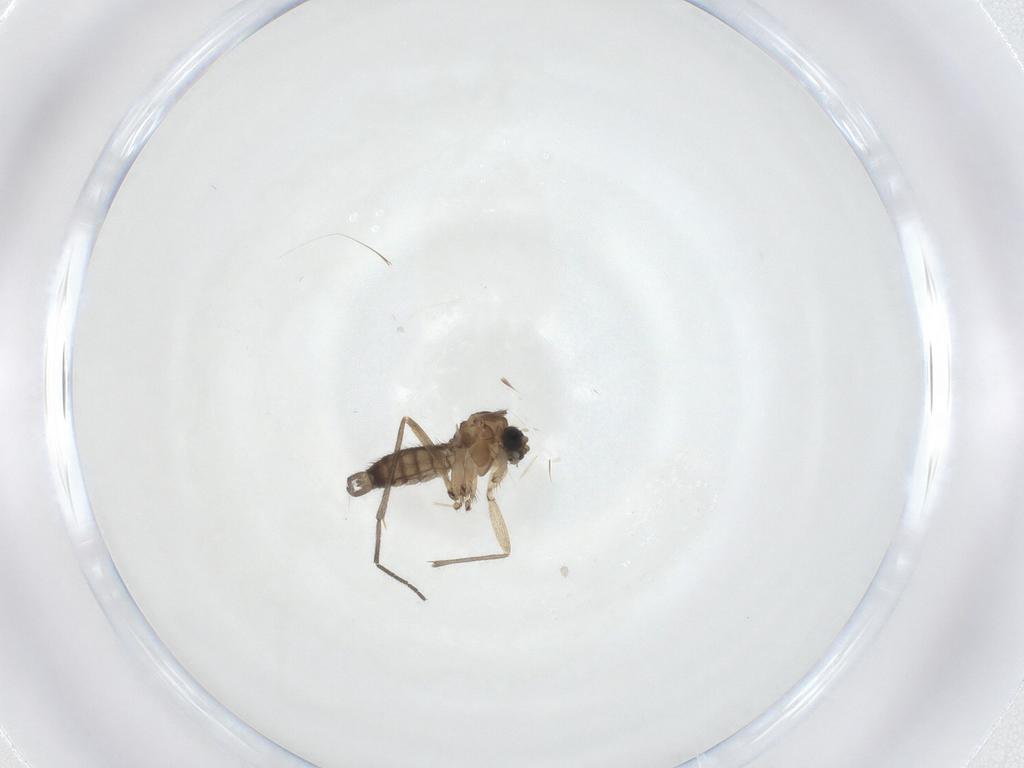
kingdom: Animalia
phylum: Arthropoda
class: Insecta
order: Diptera
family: Sciaridae
